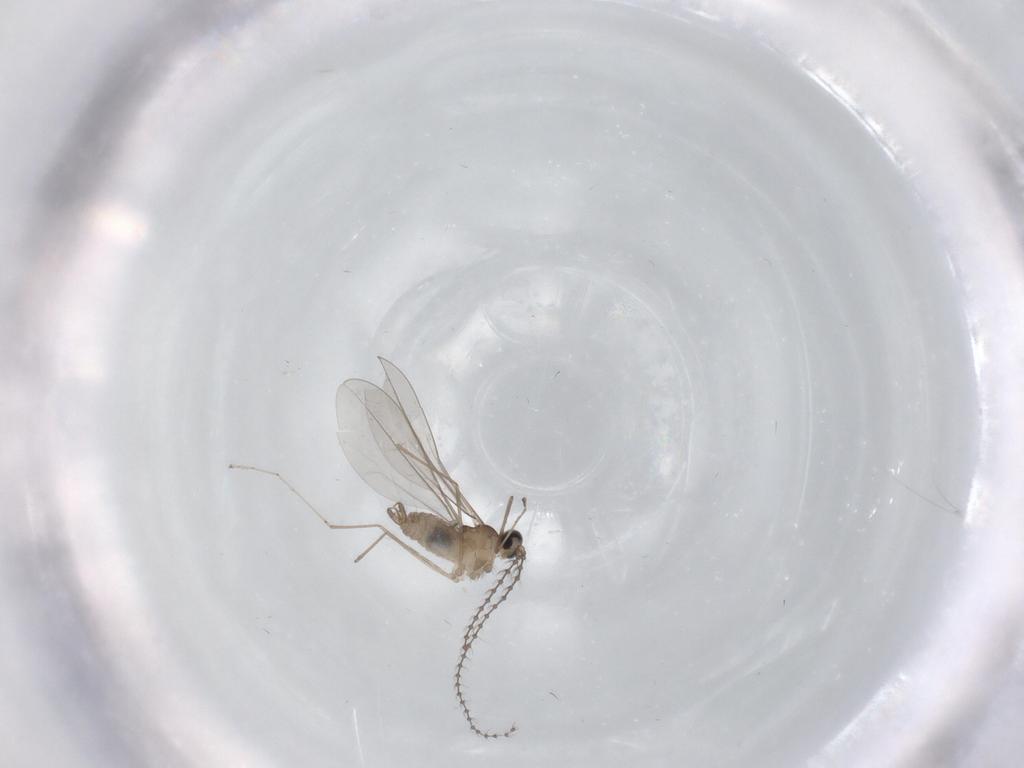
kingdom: Animalia
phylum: Arthropoda
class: Insecta
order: Diptera
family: Cecidomyiidae
